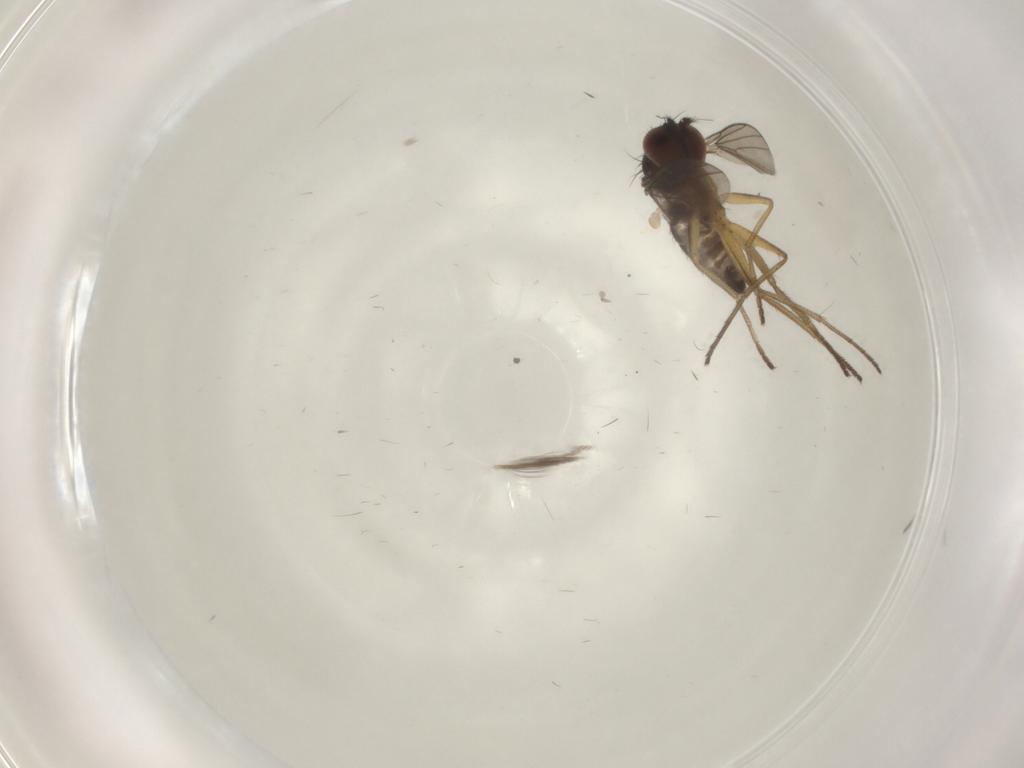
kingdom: Animalia
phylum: Arthropoda
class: Insecta
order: Diptera
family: Dolichopodidae
